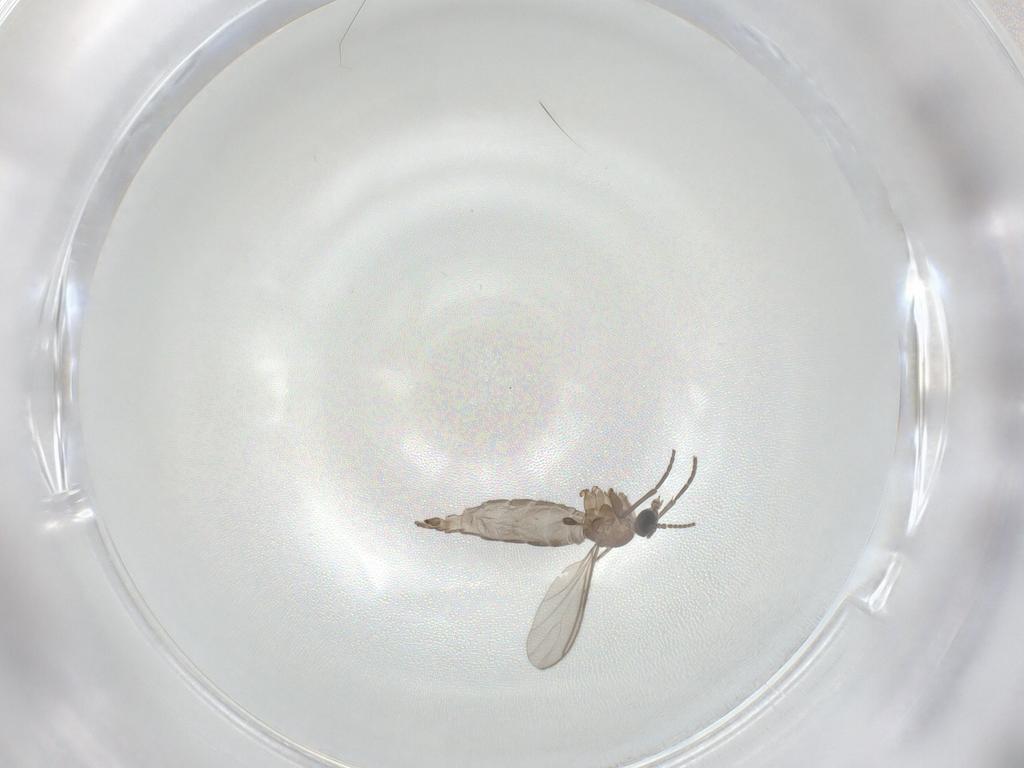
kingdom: Animalia
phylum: Arthropoda
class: Insecta
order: Diptera
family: Sciaridae
